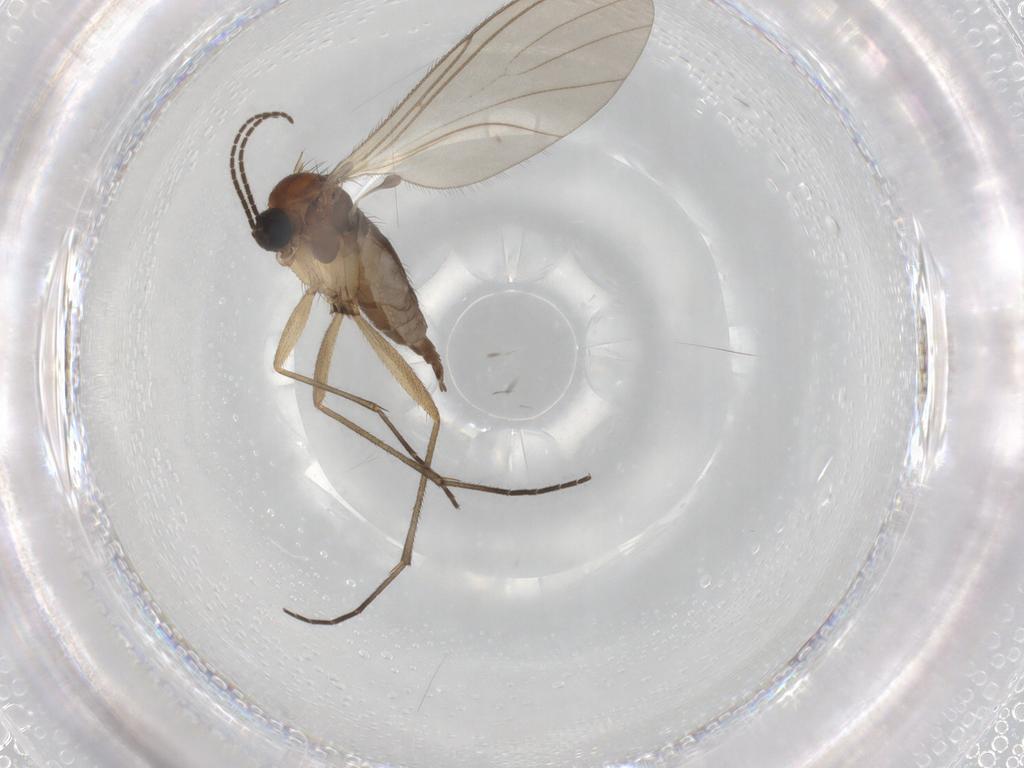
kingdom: Animalia
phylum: Arthropoda
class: Insecta
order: Diptera
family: Sciaridae
